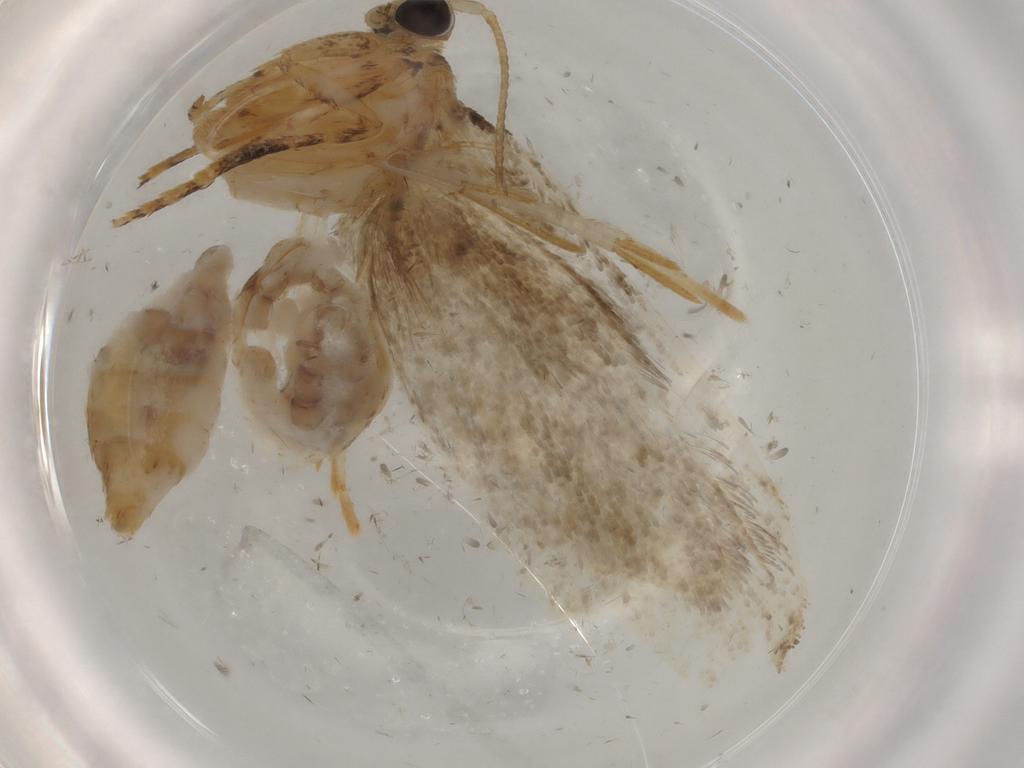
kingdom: Animalia
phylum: Arthropoda
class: Insecta
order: Lepidoptera
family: Tineidae
